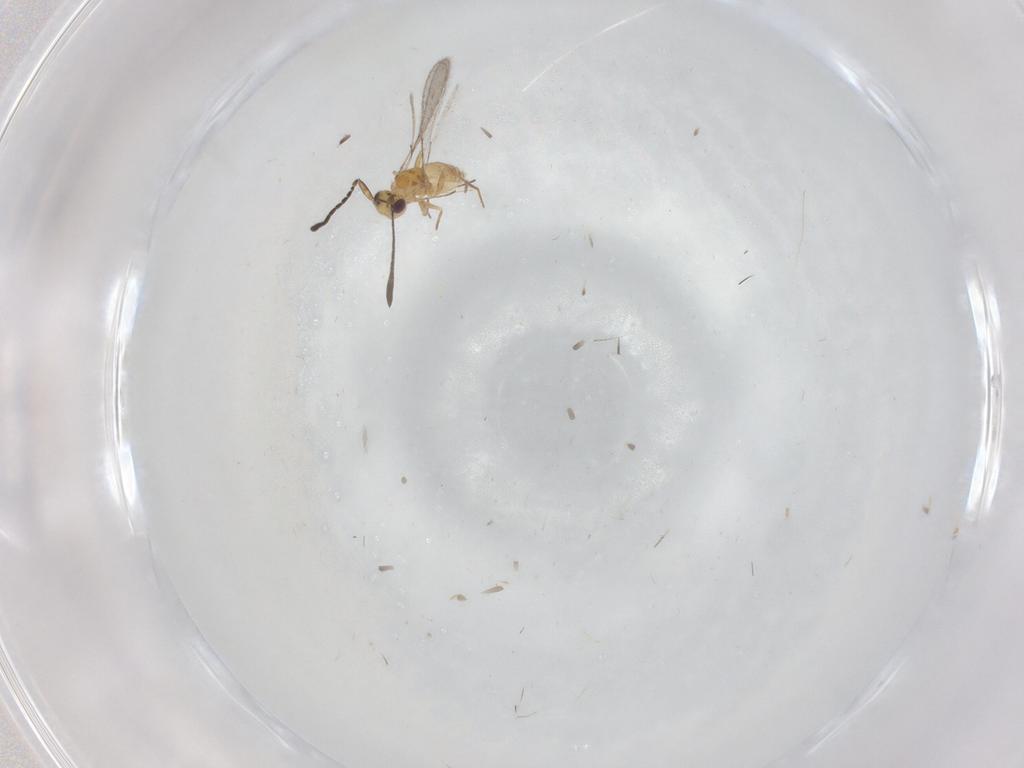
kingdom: Animalia
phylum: Arthropoda
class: Insecta
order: Hymenoptera
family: Mymaridae
